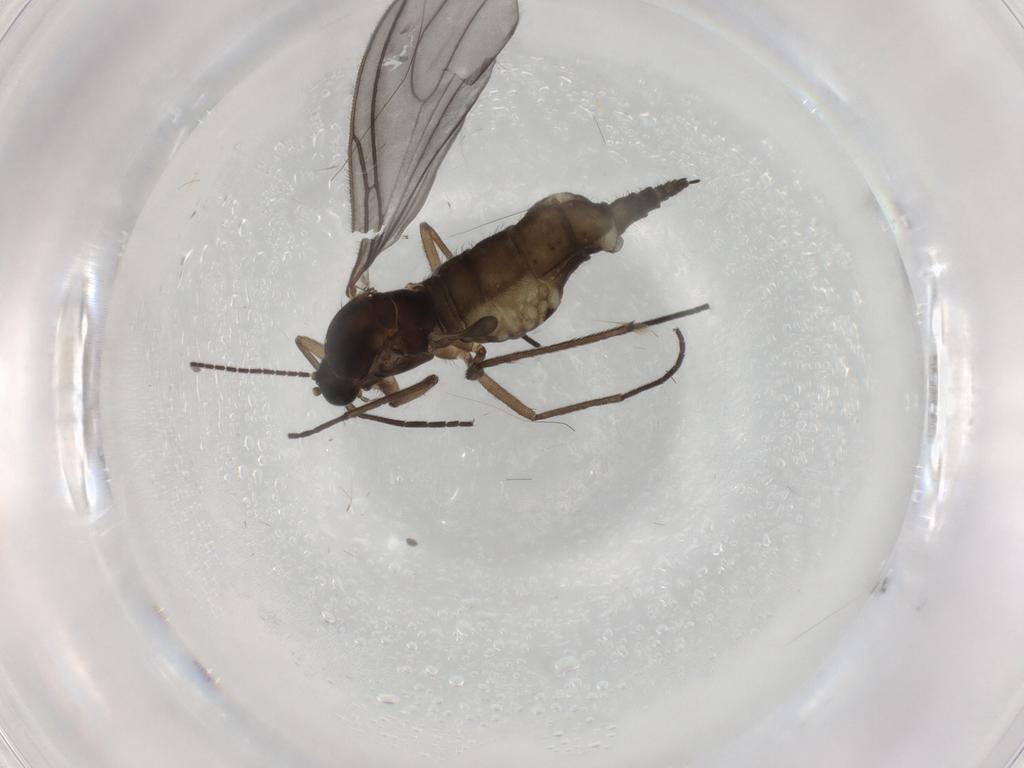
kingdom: Animalia
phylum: Arthropoda
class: Insecta
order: Diptera
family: Sciaridae
